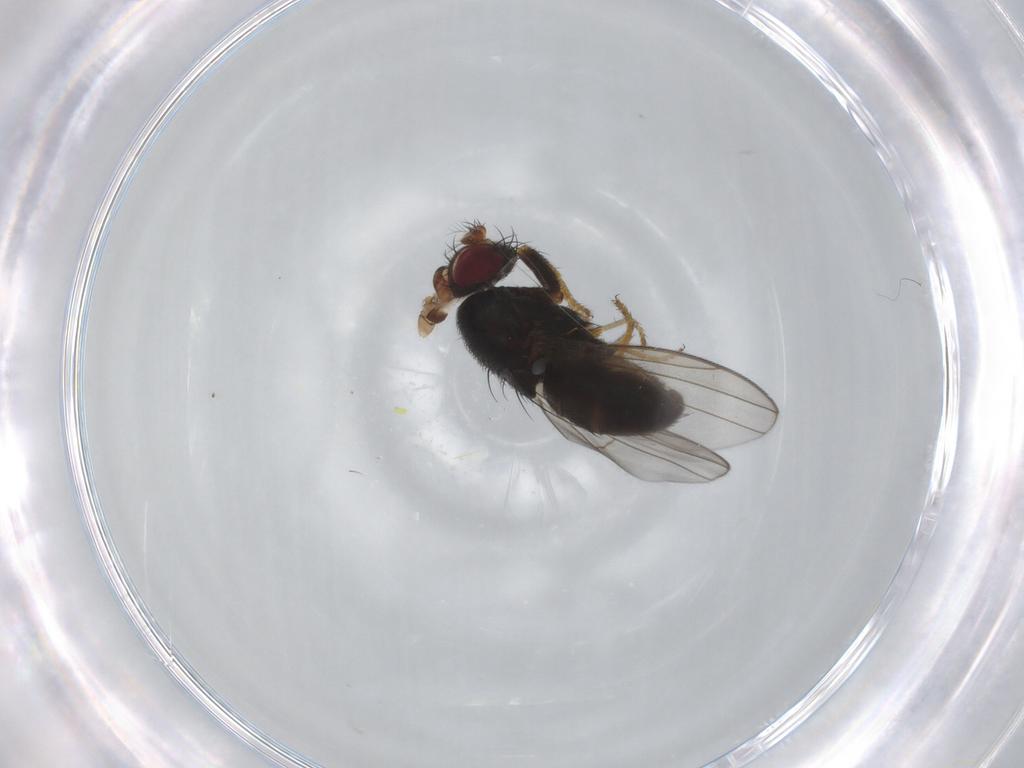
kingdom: Animalia
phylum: Arthropoda
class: Insecta
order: Diptera
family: Ephydridae
